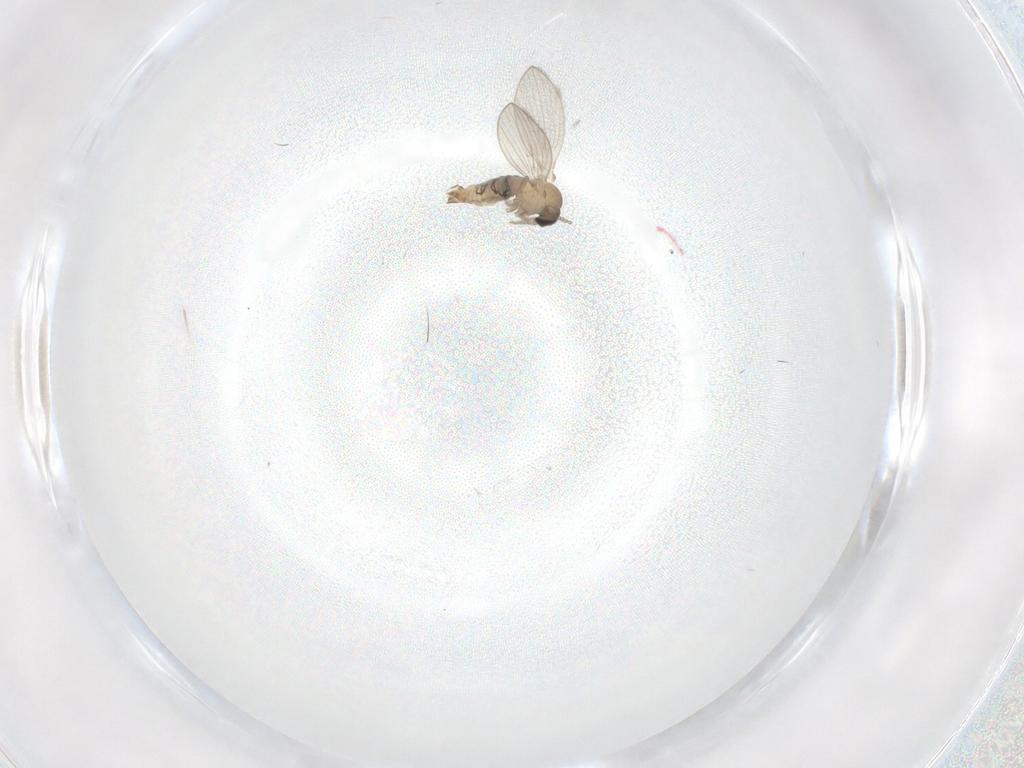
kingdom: Animalia
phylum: Arthropoda
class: Insecta
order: Diptera
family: Psychodidae
